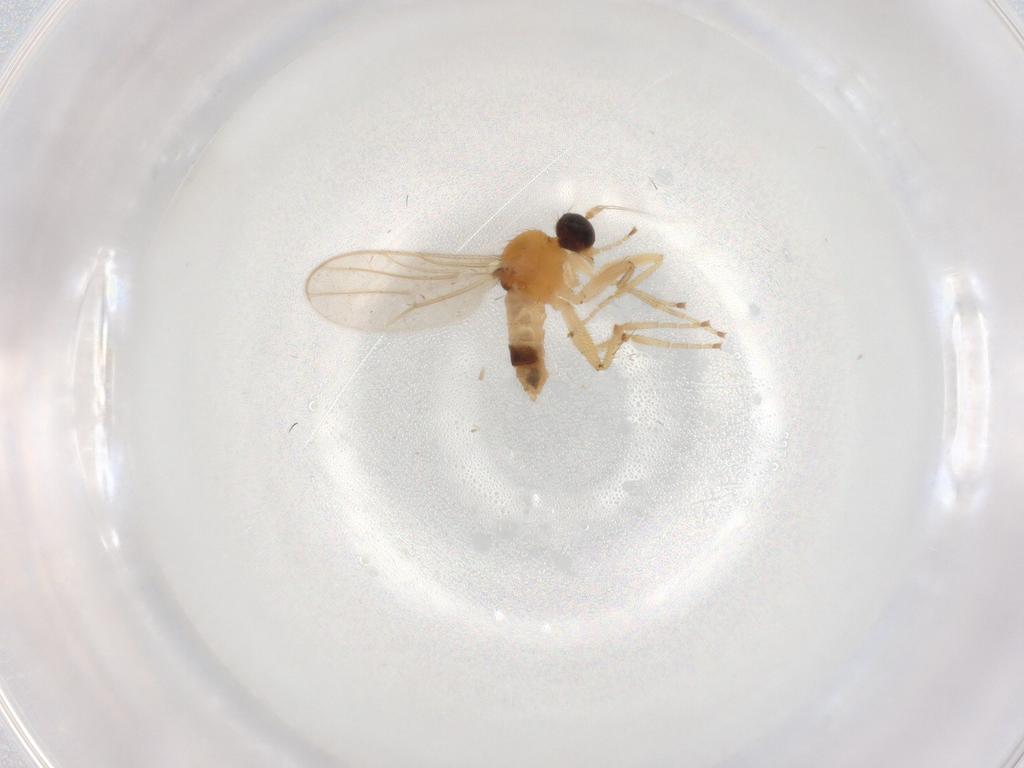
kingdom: Animalia
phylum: Arthropoda
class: Insecta
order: Diptera
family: Hybotidae
